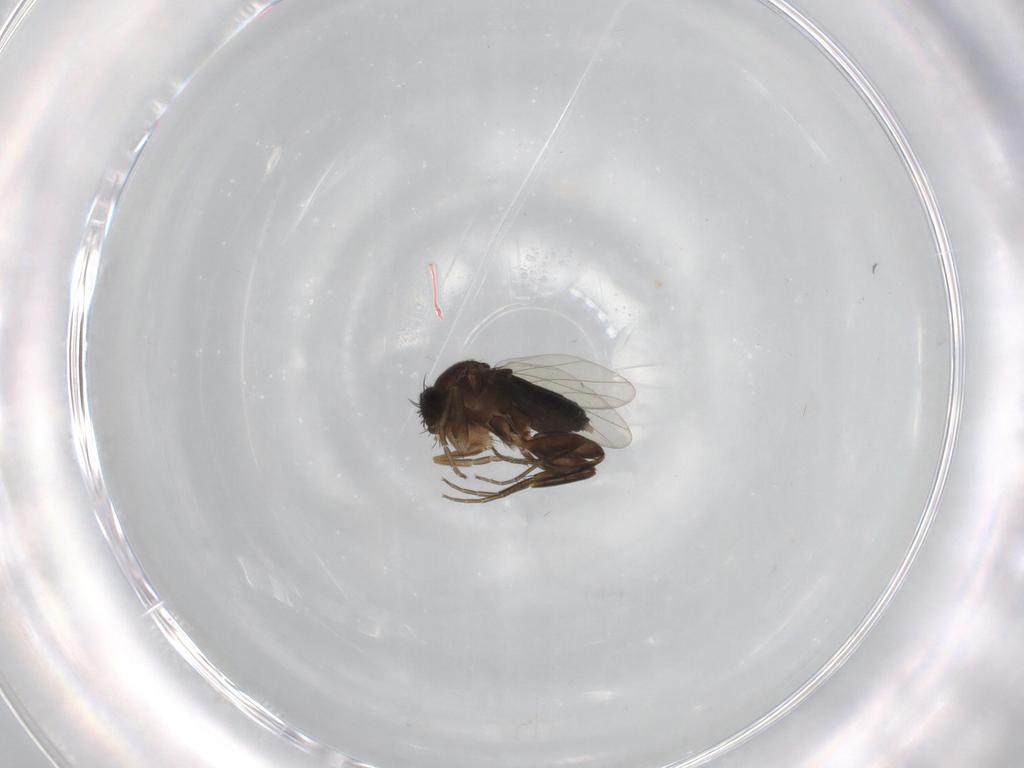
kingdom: Animalia
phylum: Arthropoda
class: Insecta
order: Diptera
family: Phoridae
